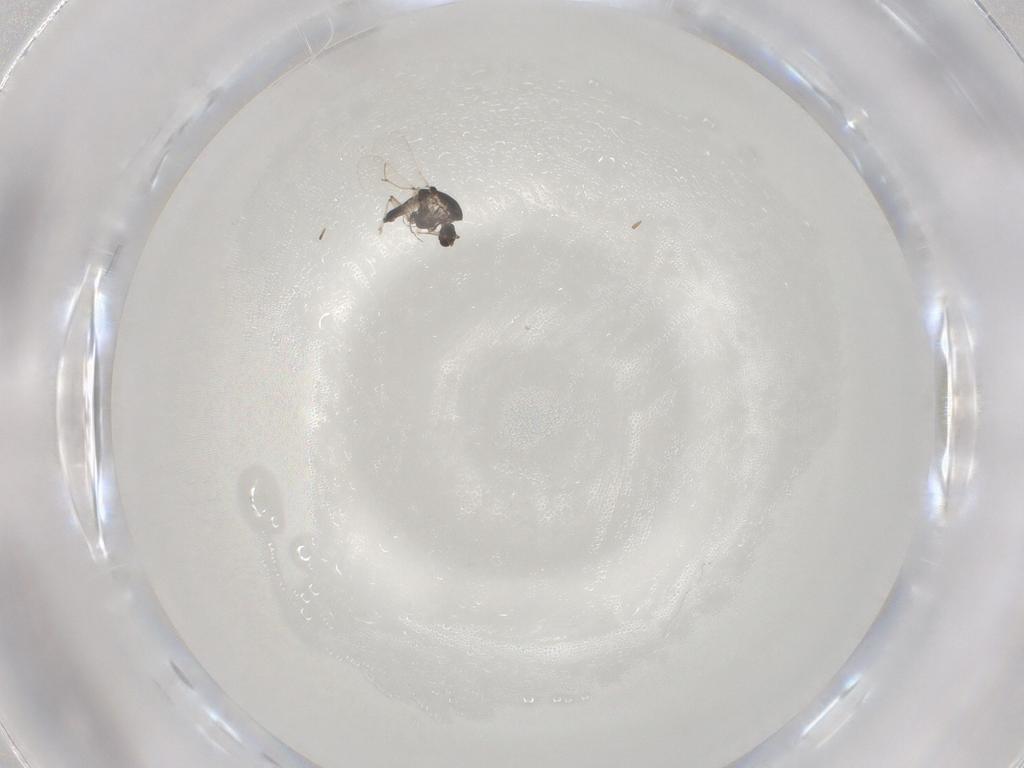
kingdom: Animalia
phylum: Arthropoda
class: Insecta
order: Diptera
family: Chironomidae
